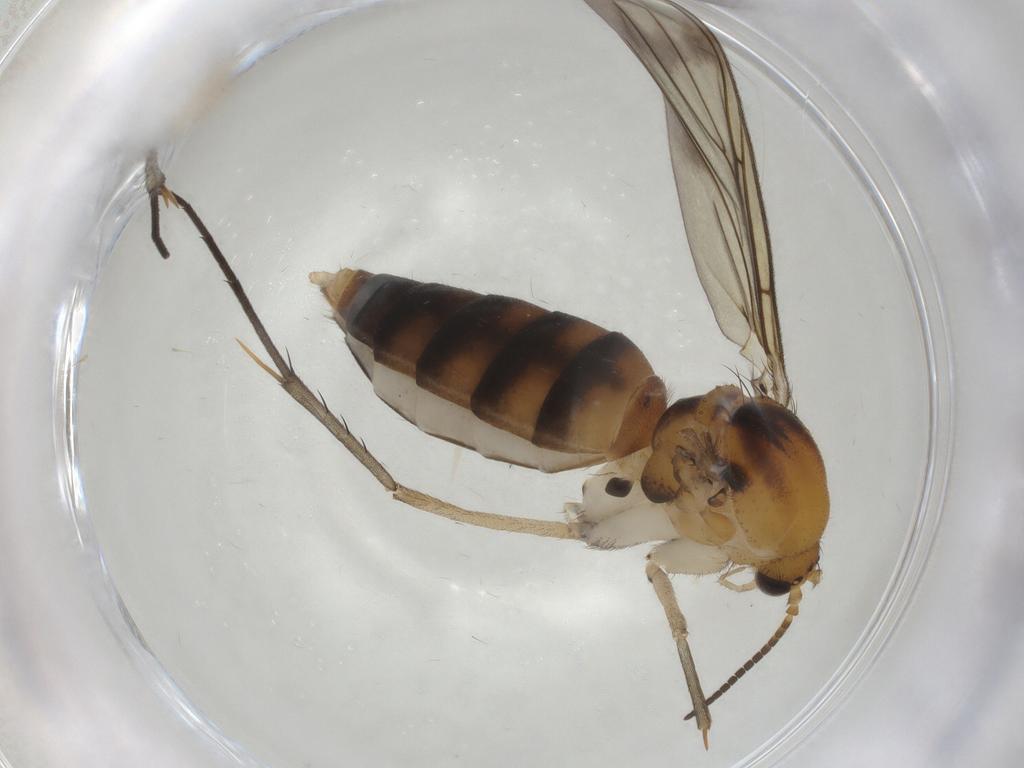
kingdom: Animalia
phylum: Arthropoda
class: Insecta
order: Diptera
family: Mycetophilidae
